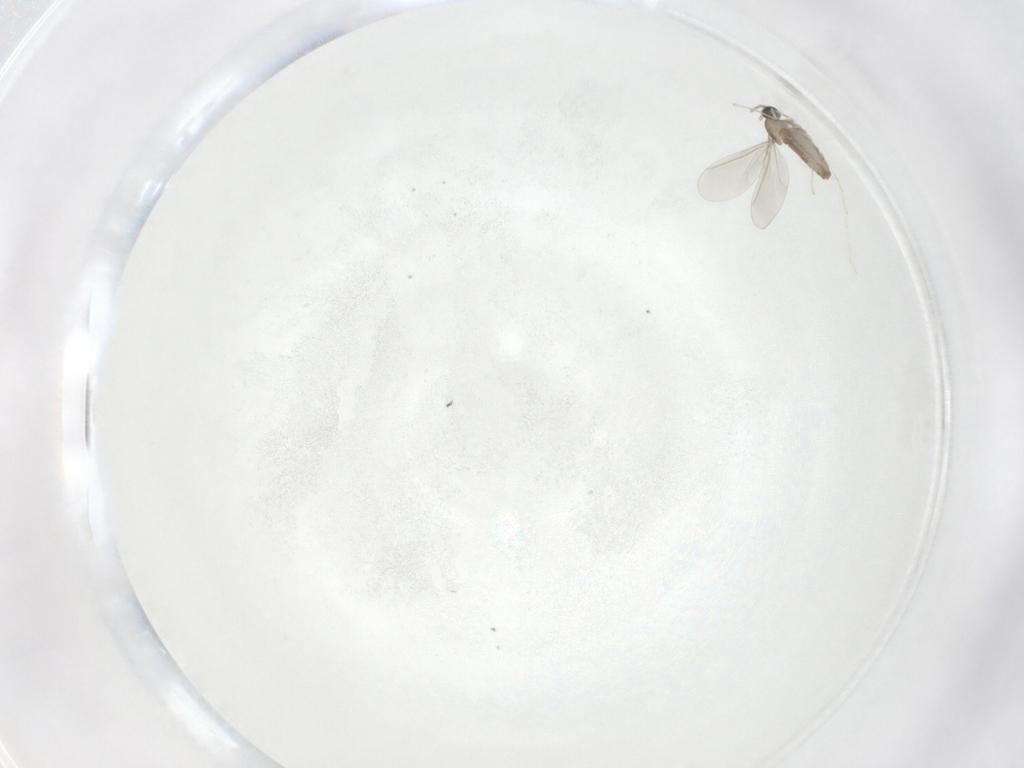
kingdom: Animalia
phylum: Arthropoda
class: Insecta
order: Diptera
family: Cecidomyiidae
